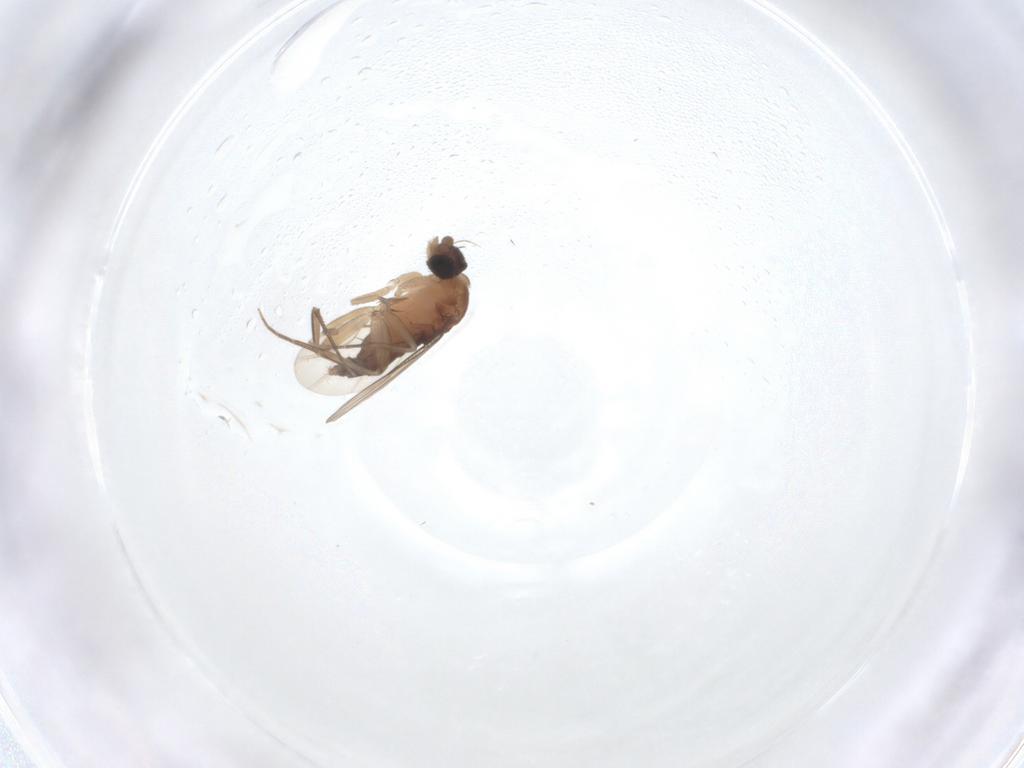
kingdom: Animalia
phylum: Arthropoda
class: Insecta
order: Diptera
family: Phoridae
